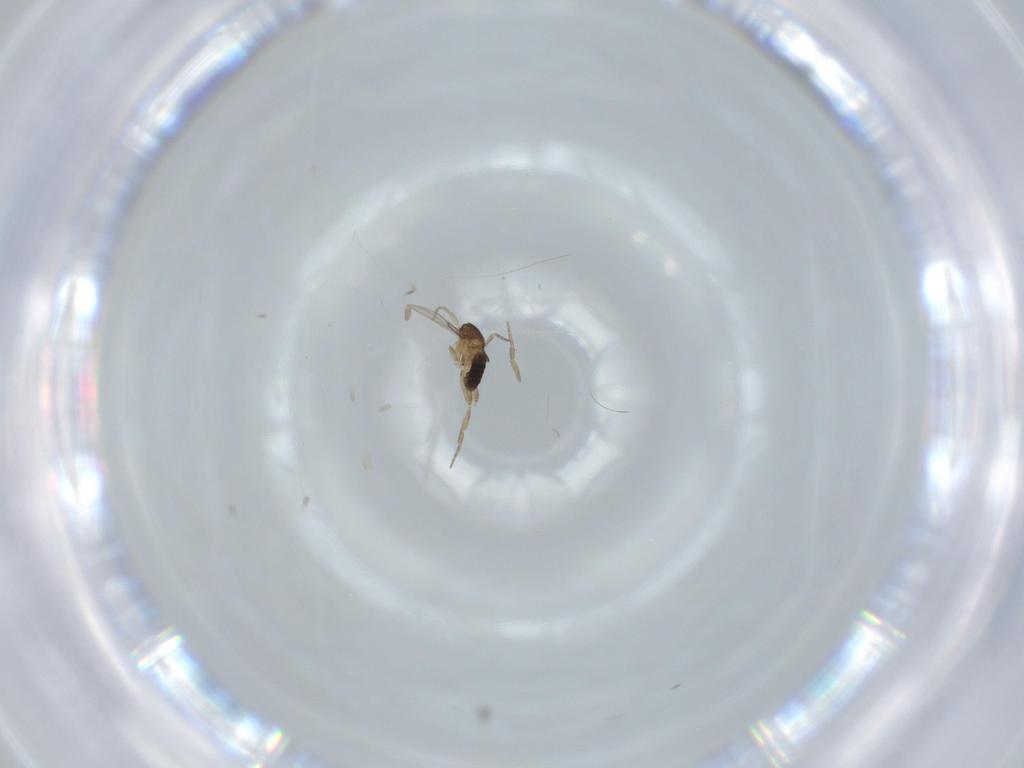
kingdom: Animalia
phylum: Arthropoda
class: Insecta
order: Diptera
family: Phoridae
